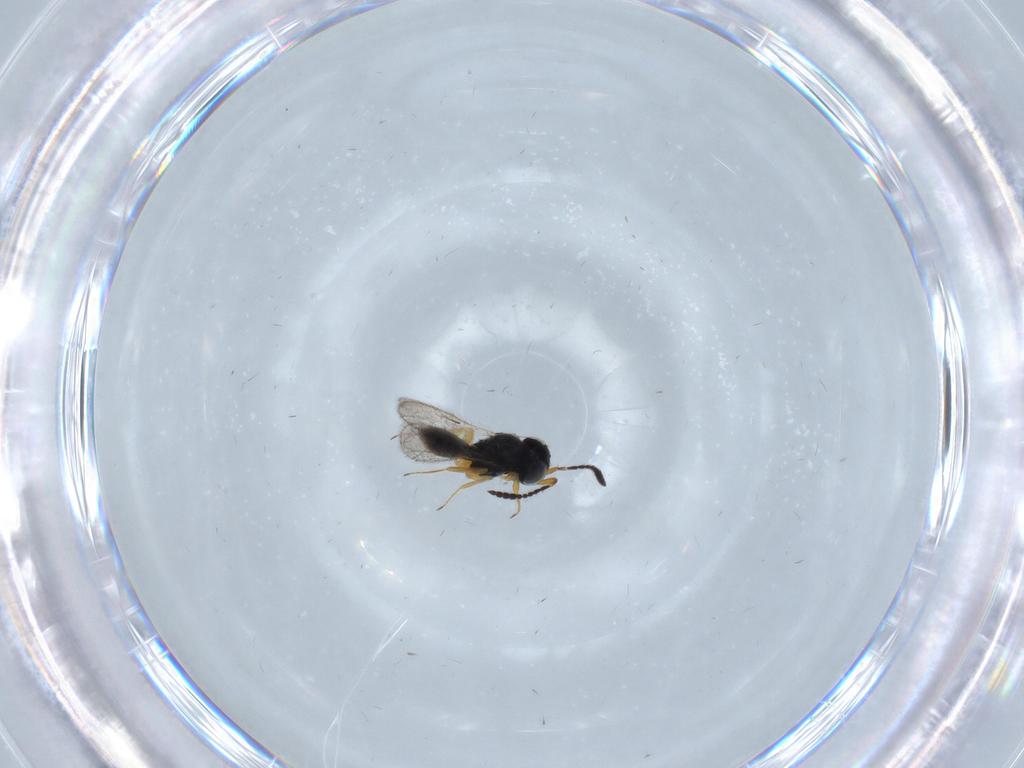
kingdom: Animalia
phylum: Arthropoda
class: Insecta
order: Hymenoptera
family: Scelionidae
